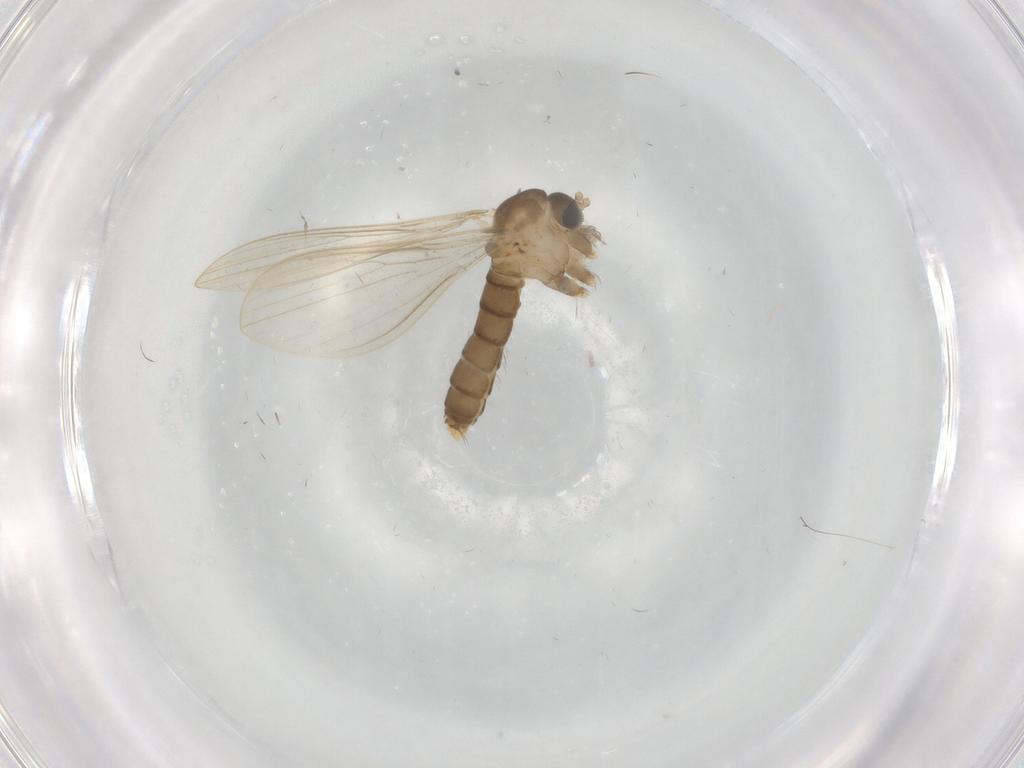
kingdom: Animalia
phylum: Arthropoda
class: Insecta
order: Diptera
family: Ceratopogonidae
